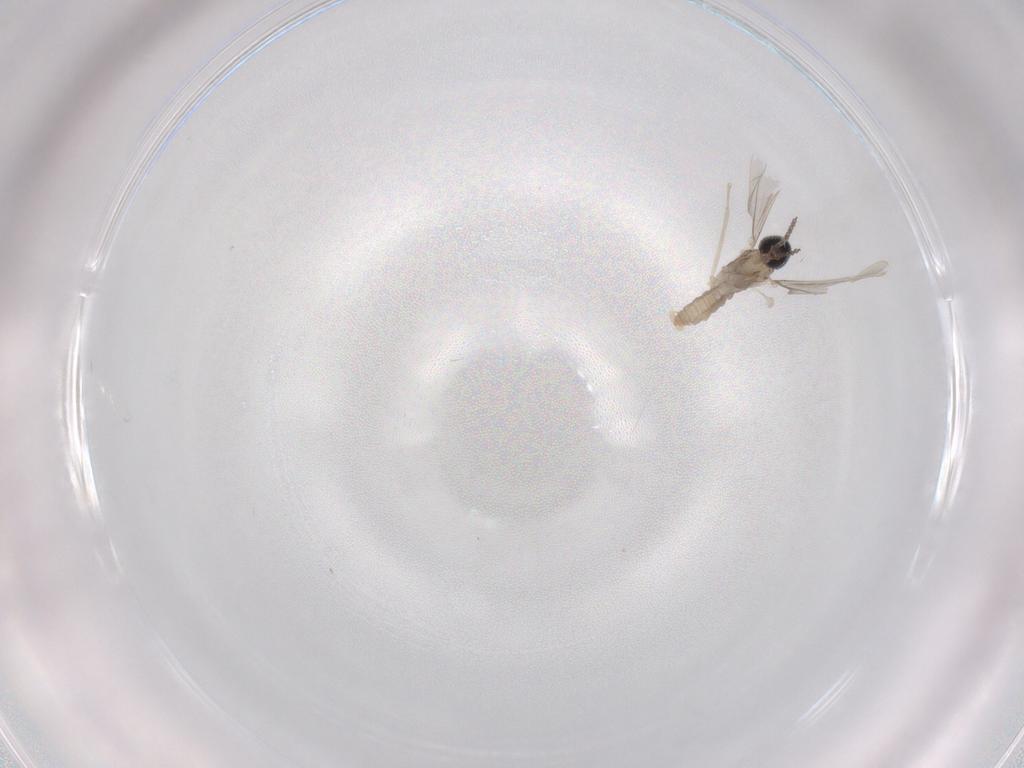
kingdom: Animalia
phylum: Arthropoda
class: Insecta
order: Diptera
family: Cecidomyiidae
